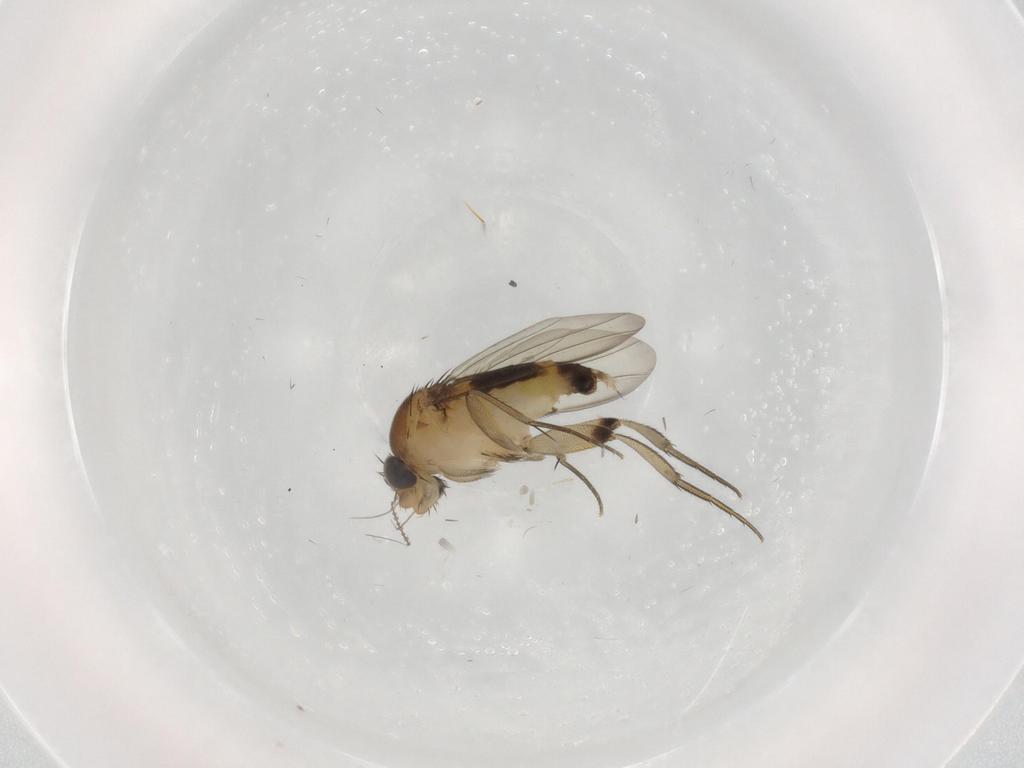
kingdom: Animalia
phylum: Arthropoda
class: Insecta
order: Diptera
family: Phoridae
